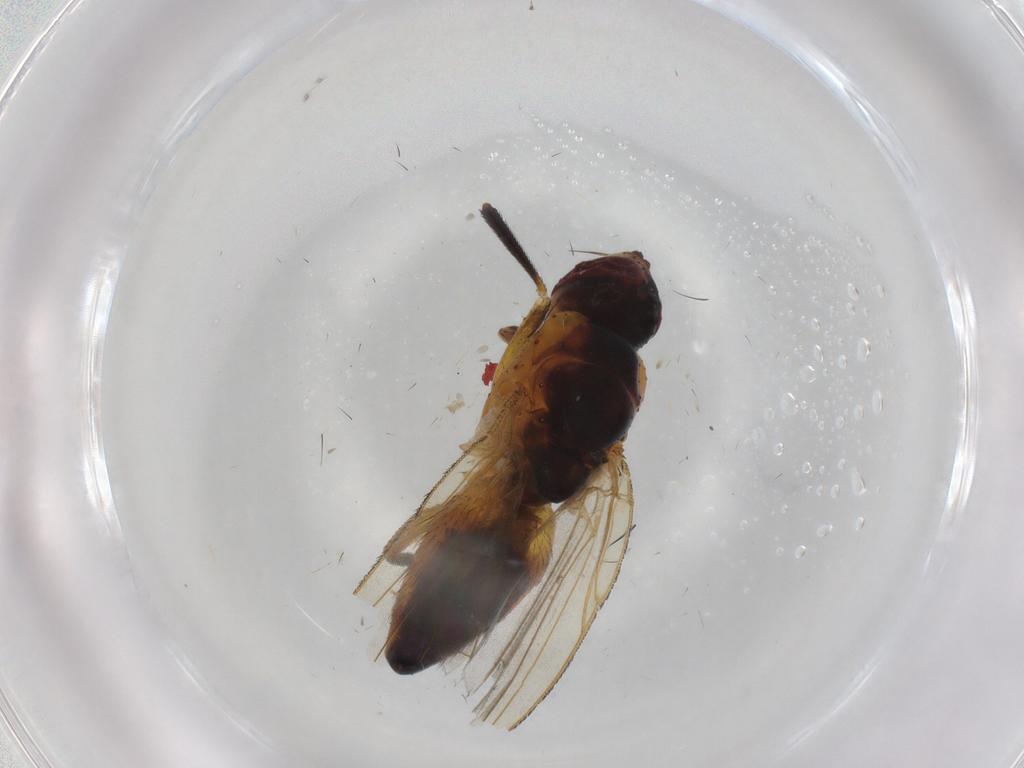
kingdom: Animalia
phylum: Arthropoda
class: Insecta
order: Diptera
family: Muscidae
